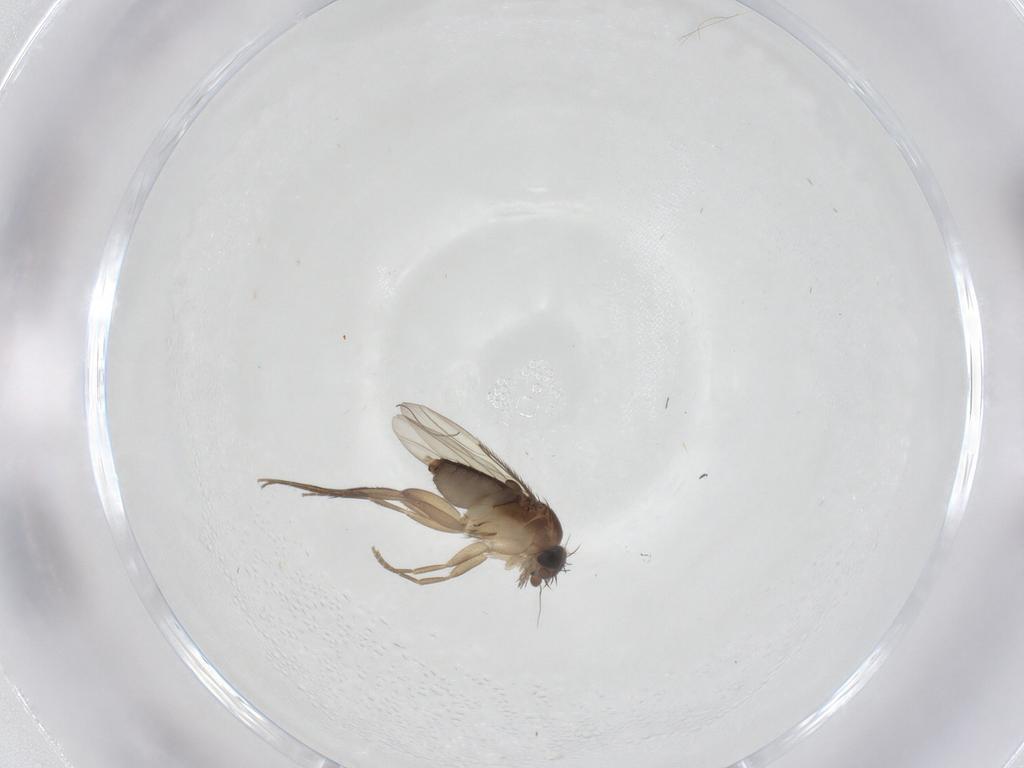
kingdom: Animalia
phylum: Arthropoda
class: Insecta
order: Diptera
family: Phoridae
